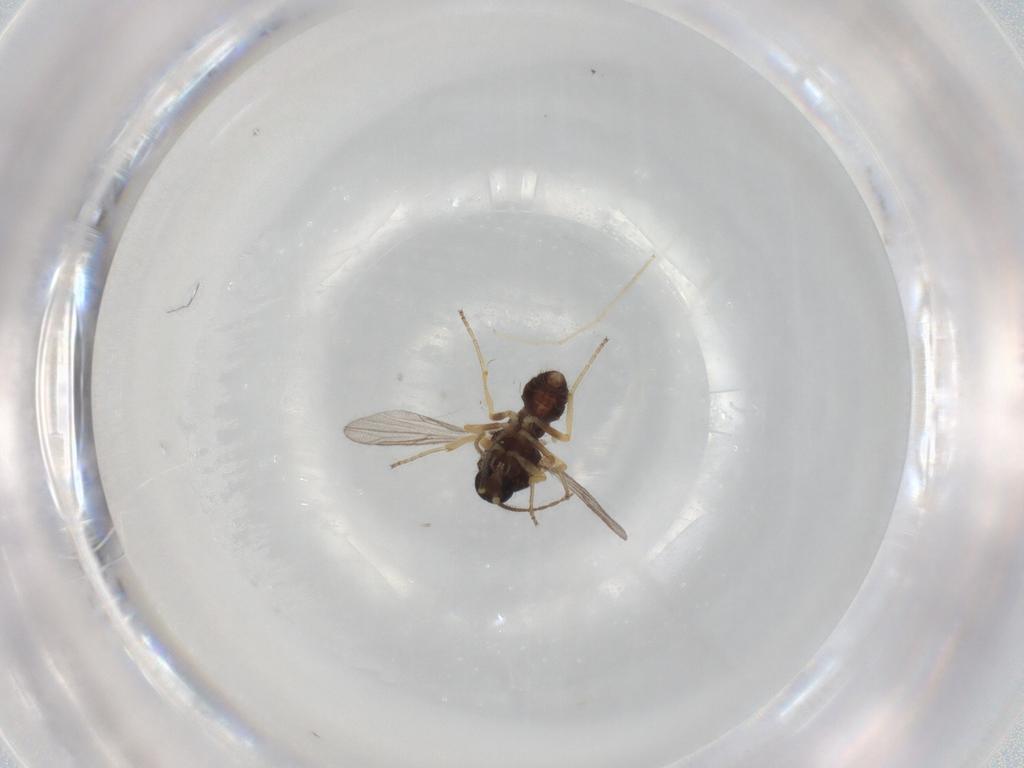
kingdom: Animalia
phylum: Arthropoda
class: Insecta
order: Diptera
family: Ceratopogonidae
